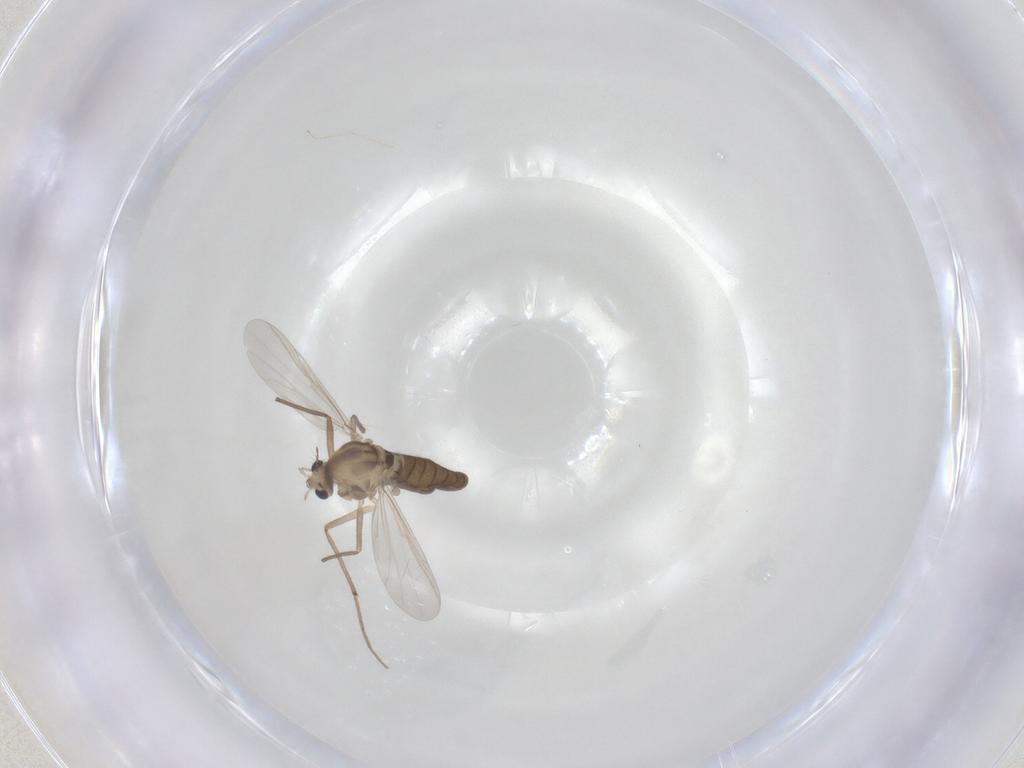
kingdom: Animalia
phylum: Arthropoda
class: Insecta
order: Diptera
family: Chironomidae
